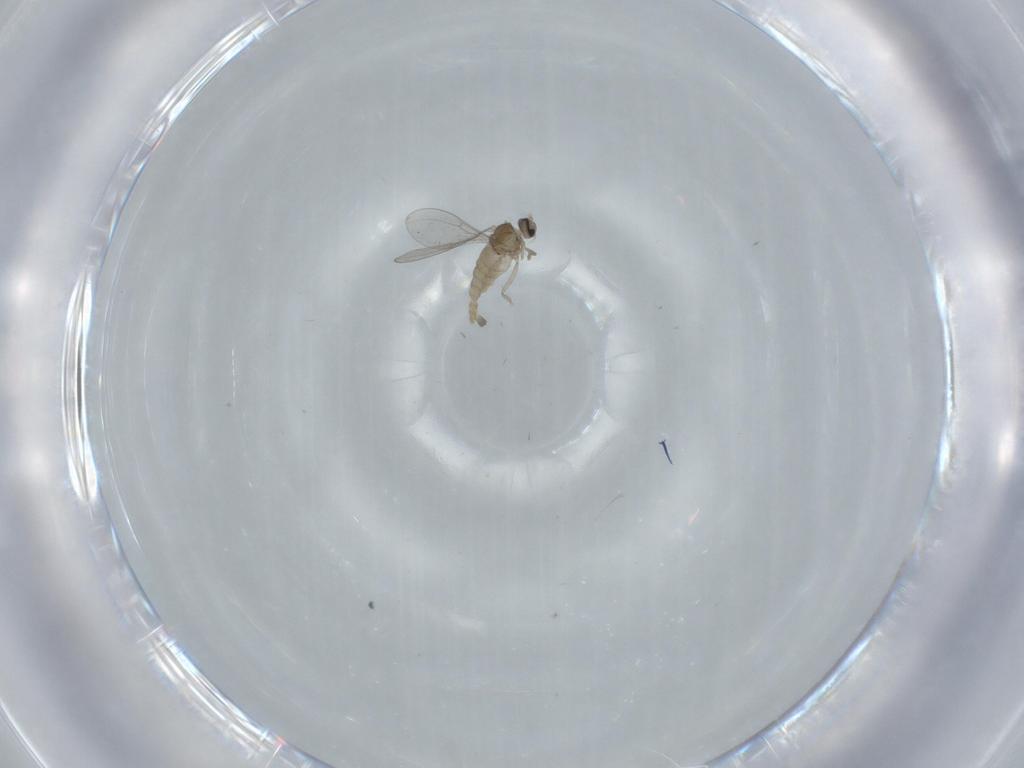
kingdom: Animalia
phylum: Arthropoda
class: Insecta
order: Diptera
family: Cecidomyiidae
